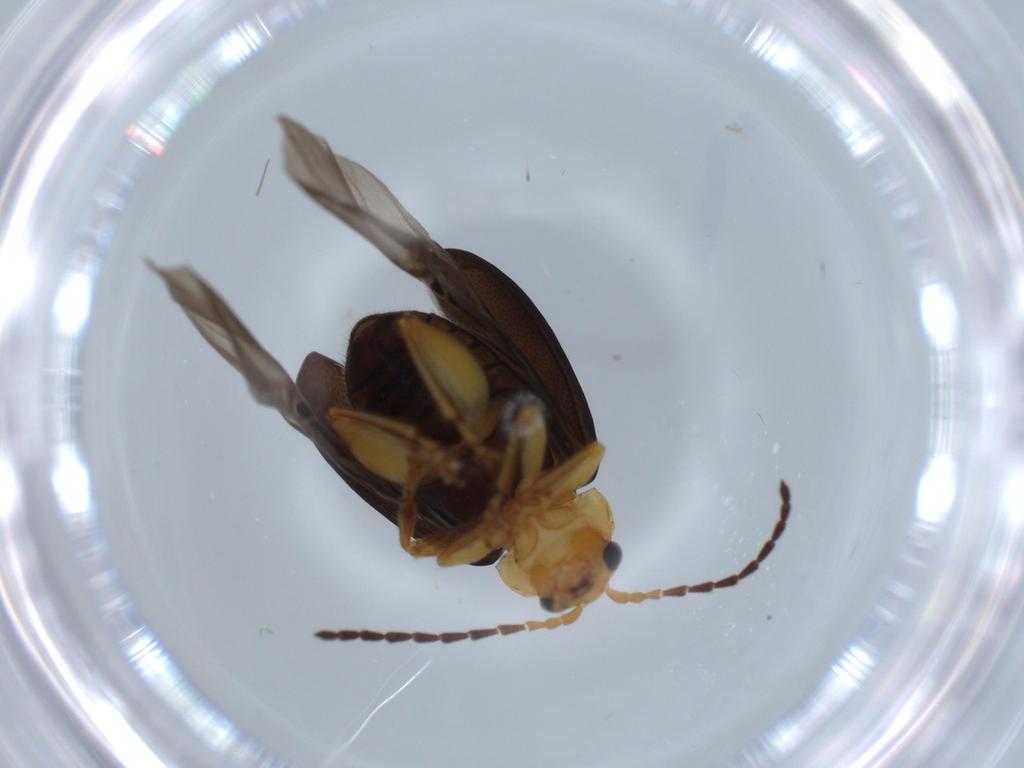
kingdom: Animalia
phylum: Arthropoda
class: Insecta
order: Coleoptera
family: Chrysomelidae
